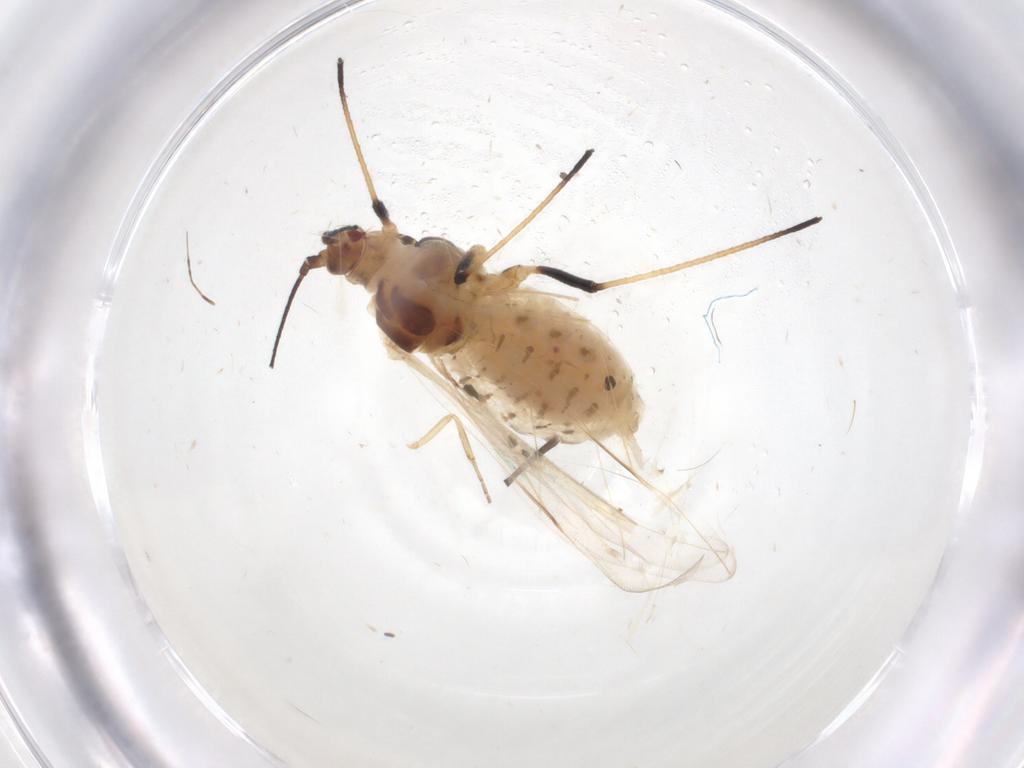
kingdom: Animalia
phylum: Arthropoda
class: Insecta
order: Hemiptera
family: Aphididae
